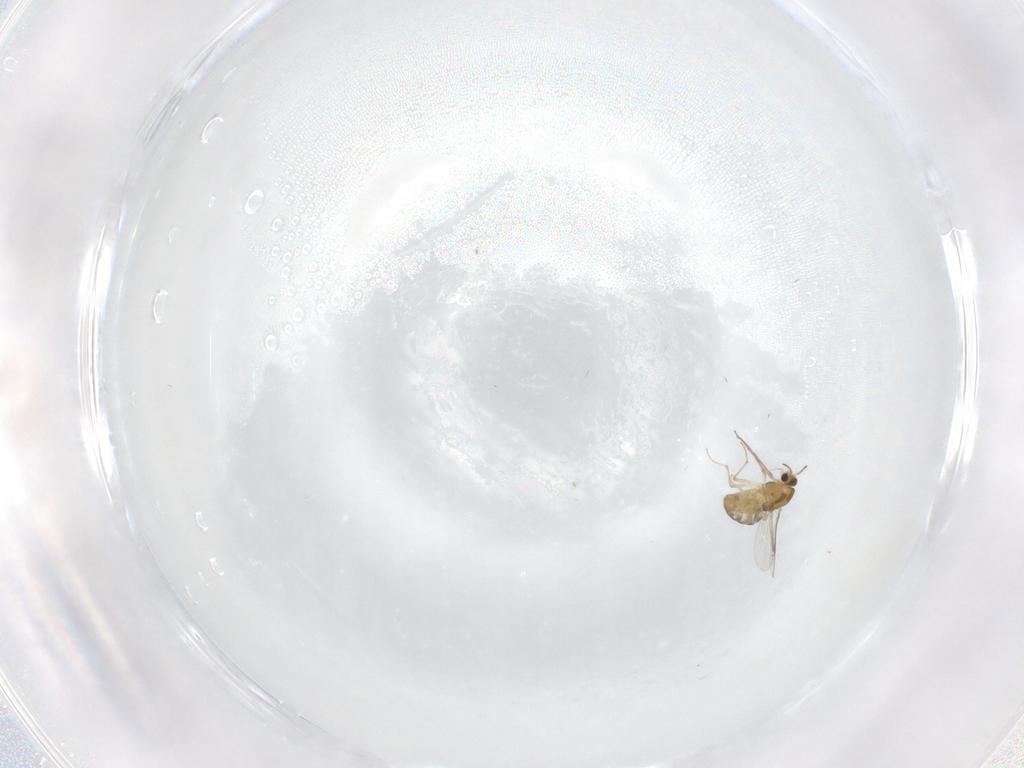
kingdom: Animalia
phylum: Arthropoda
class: Insecta
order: Diptera
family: Chironomidae
